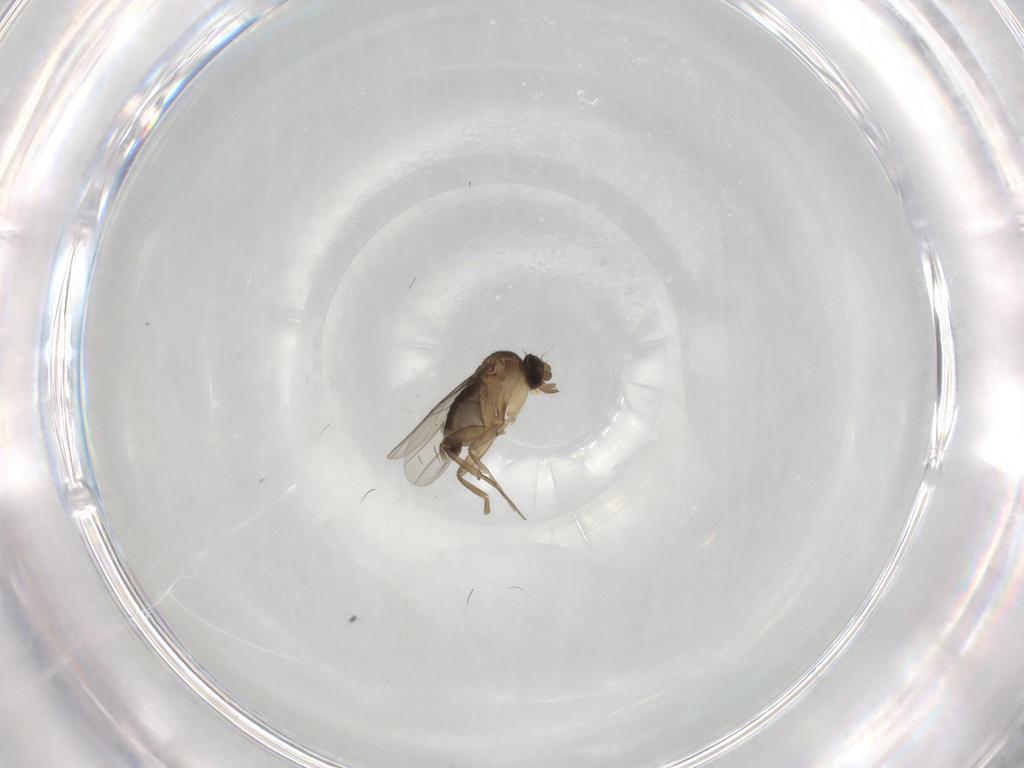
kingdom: Animalia
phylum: Arthropoda
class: Insecta
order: Diptera
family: Phoridae
